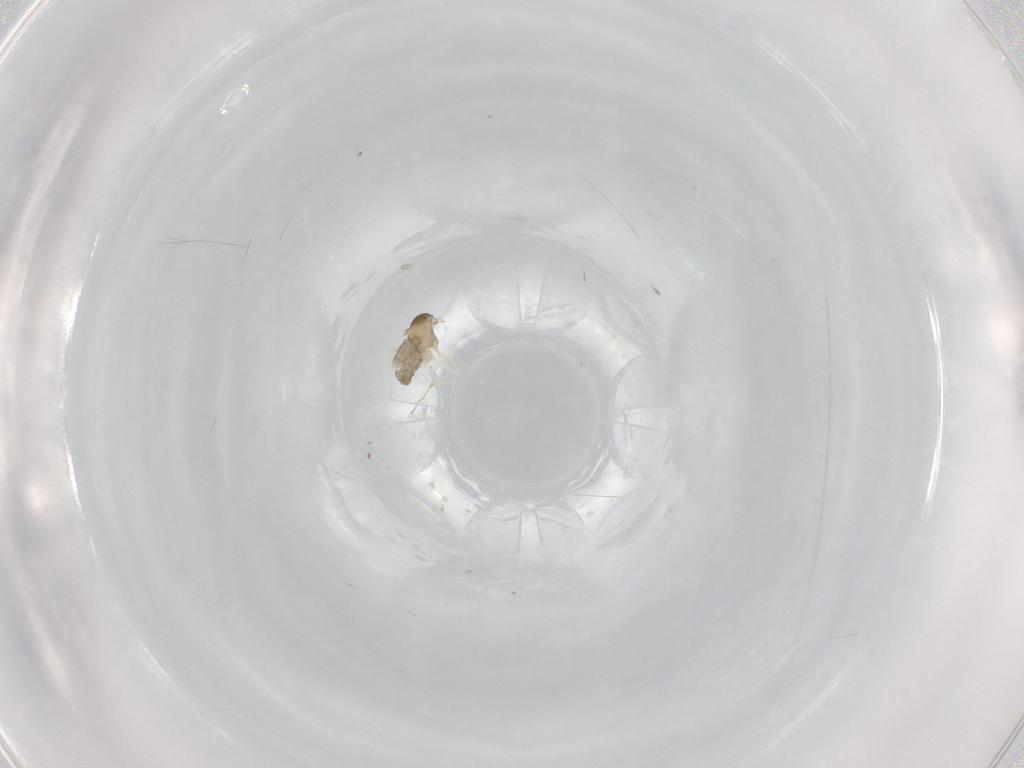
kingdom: Animalia
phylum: Arthropoda
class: Insecta
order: Diptera
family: Cecidomyiidae
